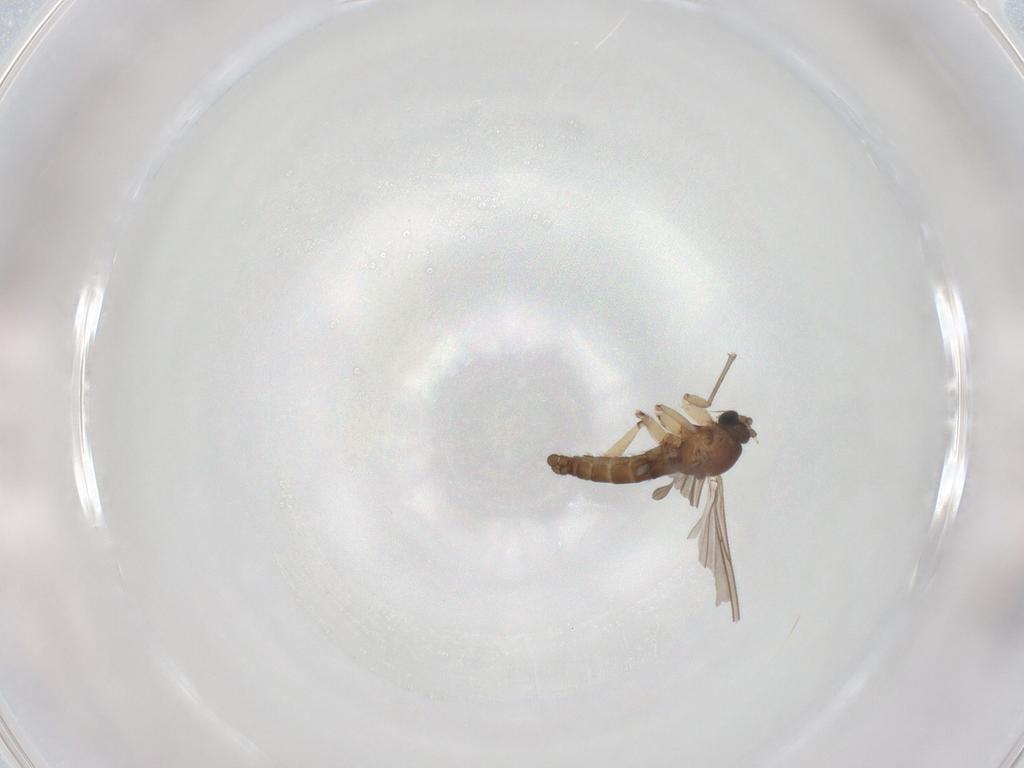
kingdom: Animalia
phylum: Arthropoda
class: Insecta
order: Diptera
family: Sciaridae
